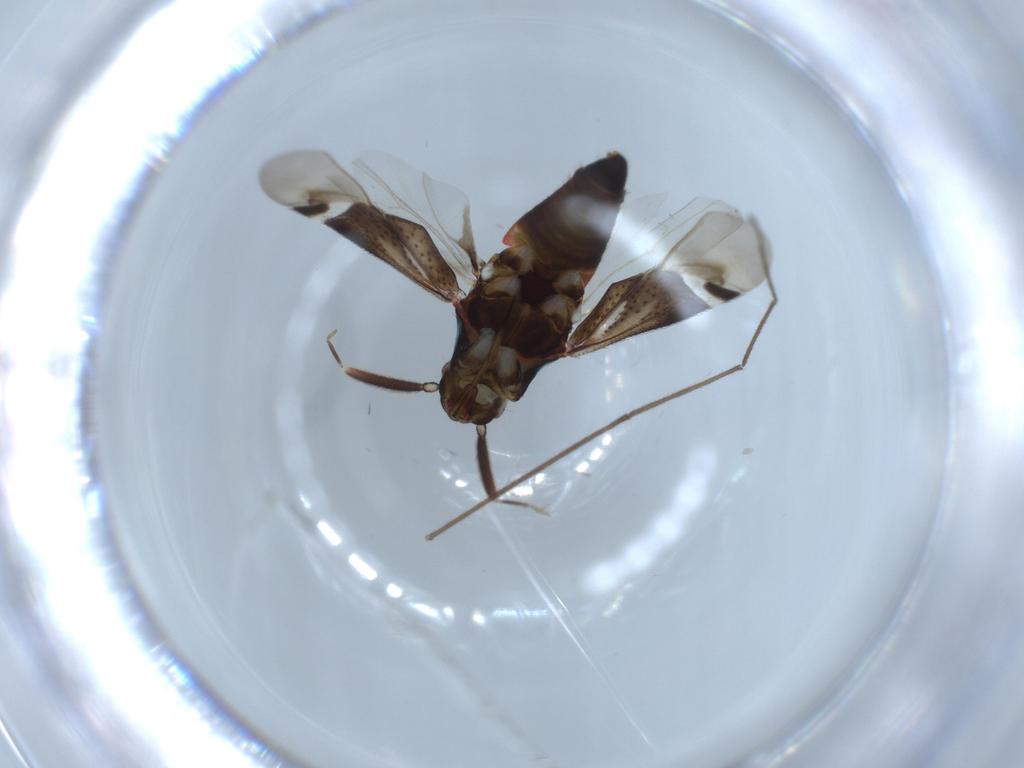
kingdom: Animalia
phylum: Arthropoda
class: Insecta
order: Hemiptera
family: Miridae
